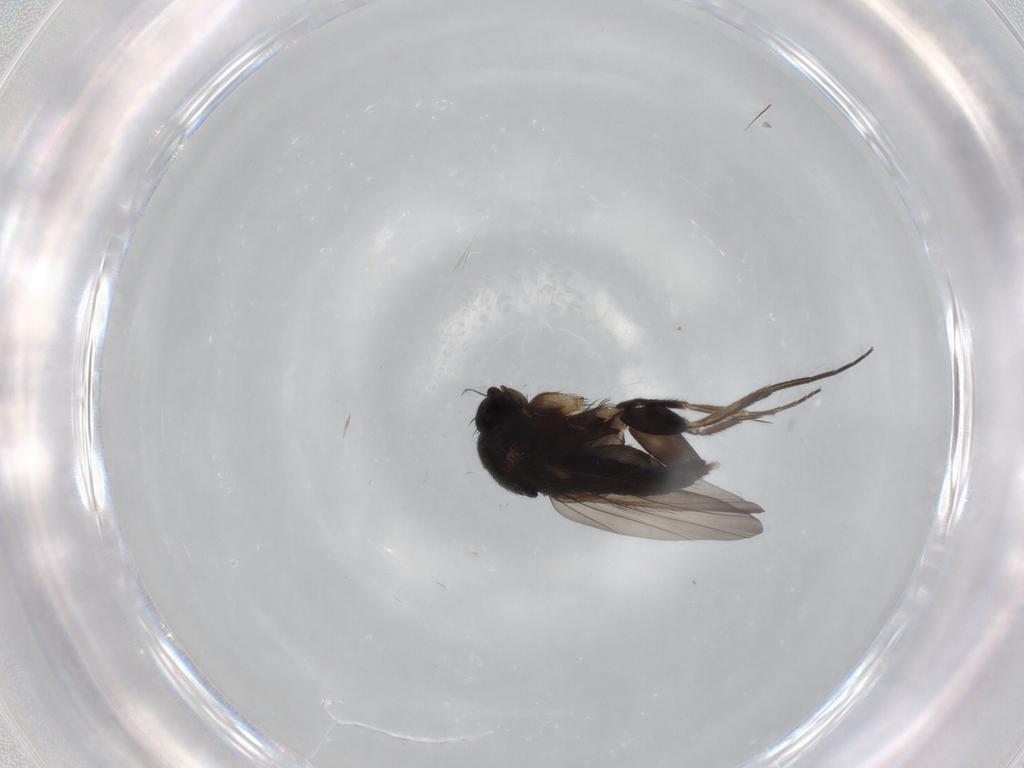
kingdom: Animalia
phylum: Arthropoda
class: Insecta
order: Diptera
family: Phoridae
